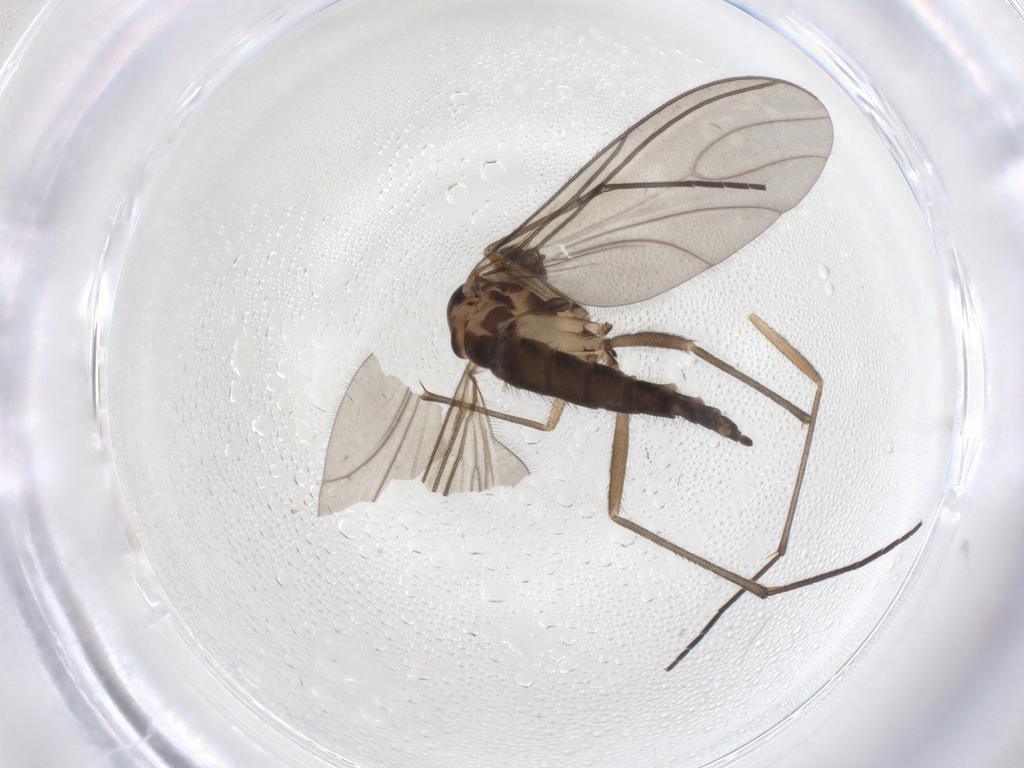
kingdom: Animalia
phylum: Arthropoda
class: Insecta
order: Diptera
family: Sciaridae
